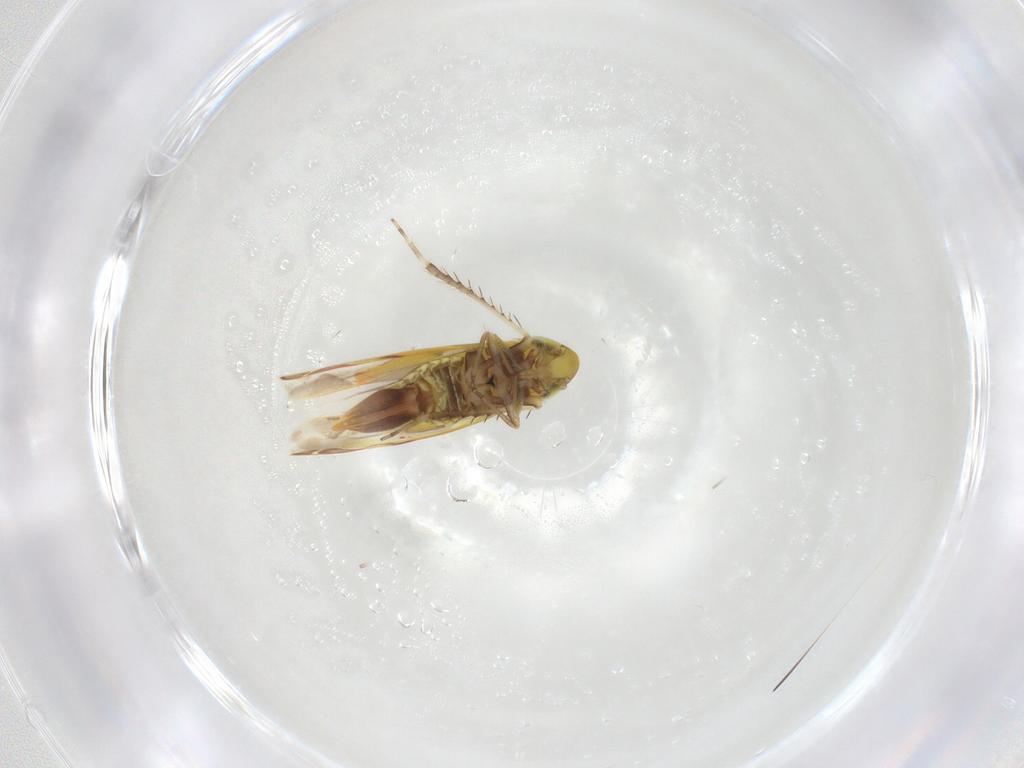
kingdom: Animalia
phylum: Arthropoda
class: Insecta
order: Hemiptera
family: Cicadellidae
